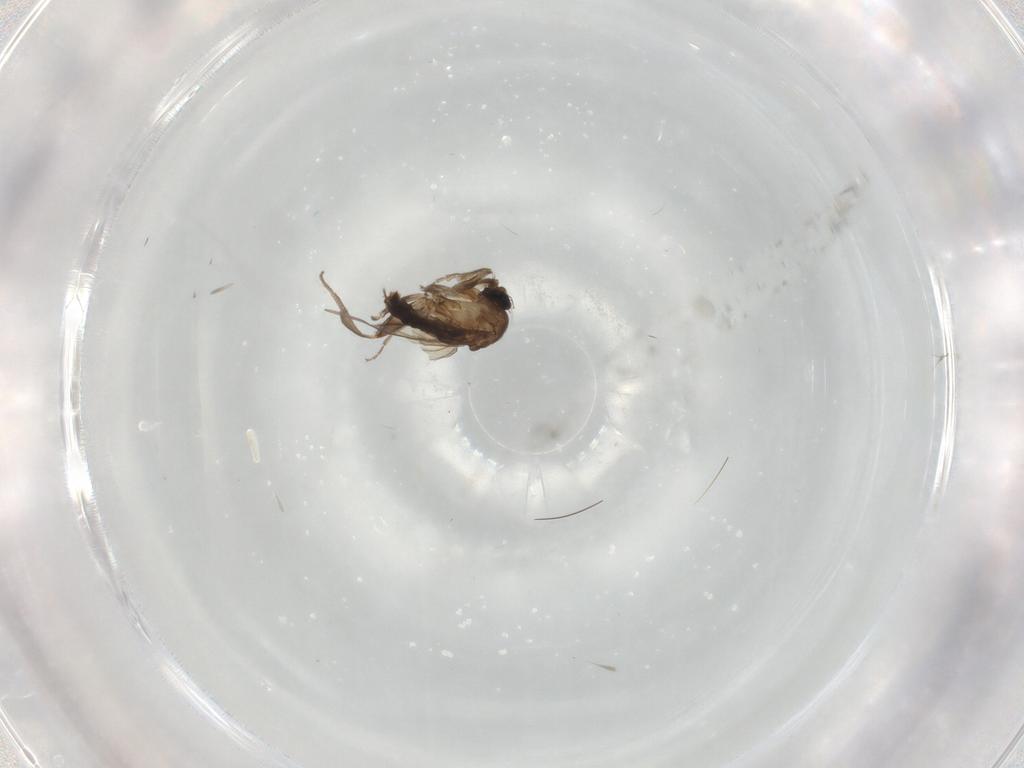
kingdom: Animalia
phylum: Arthropoda
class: Insecta
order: Diptera
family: Phoridae
